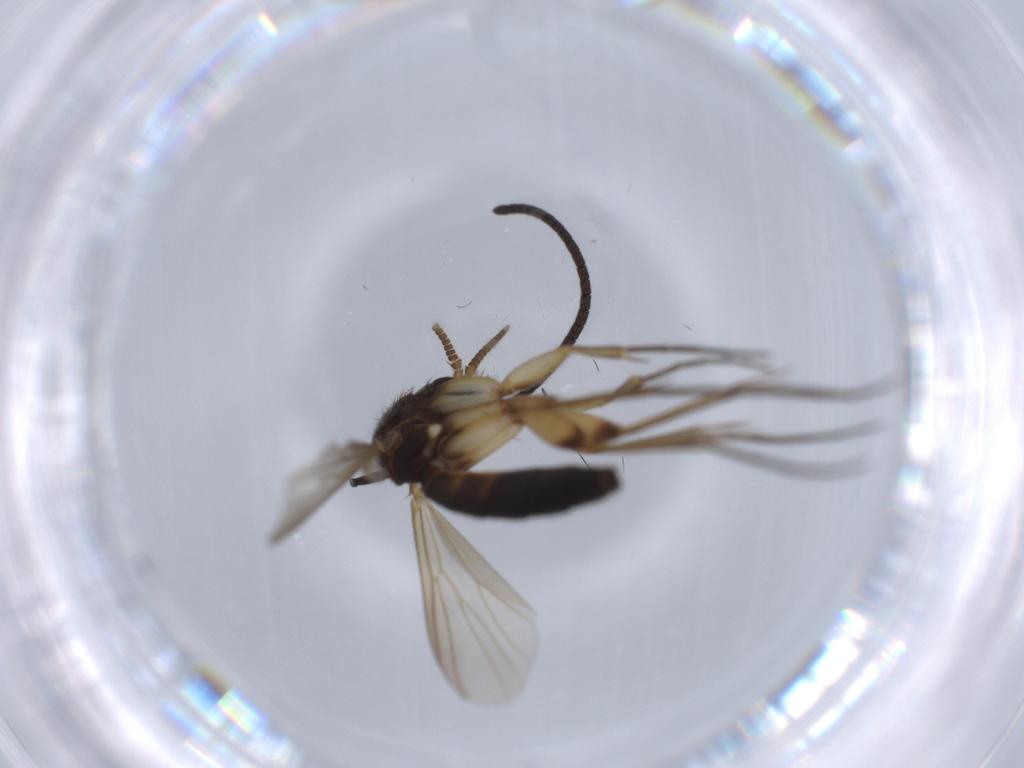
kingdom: Animalia
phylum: Arthropoda
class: Insecta
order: Diptera
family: Mycetophilidae
